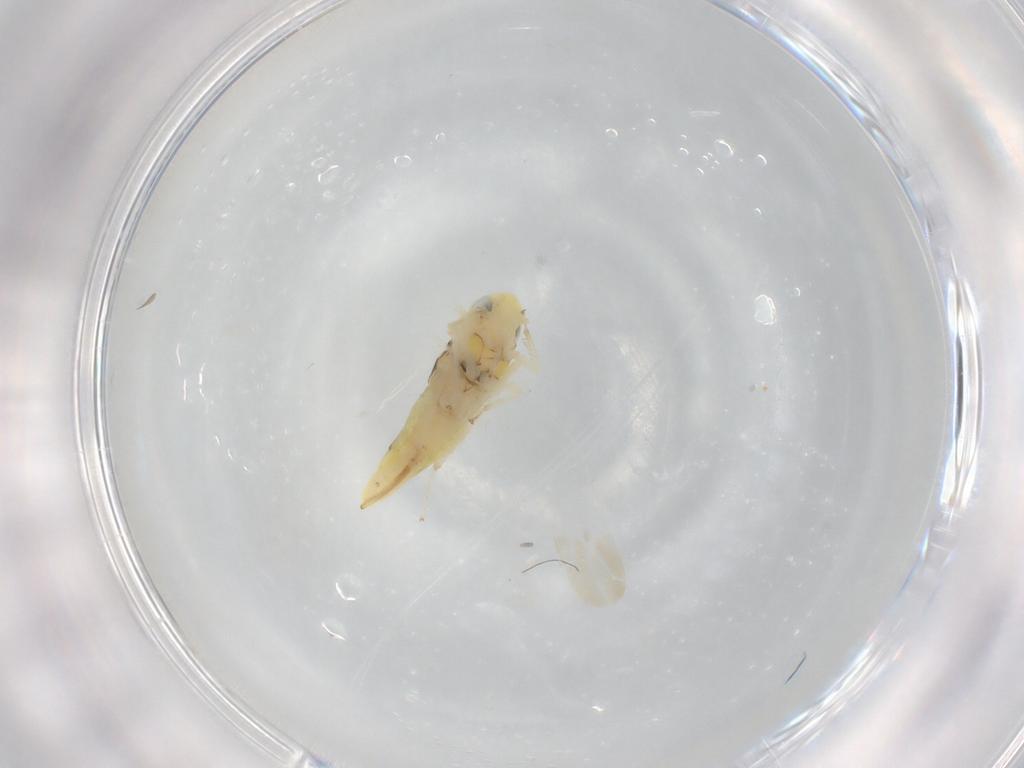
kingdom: Animalia
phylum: Arthropoda
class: Insecta
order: Hemiptera
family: Cicadellidae
